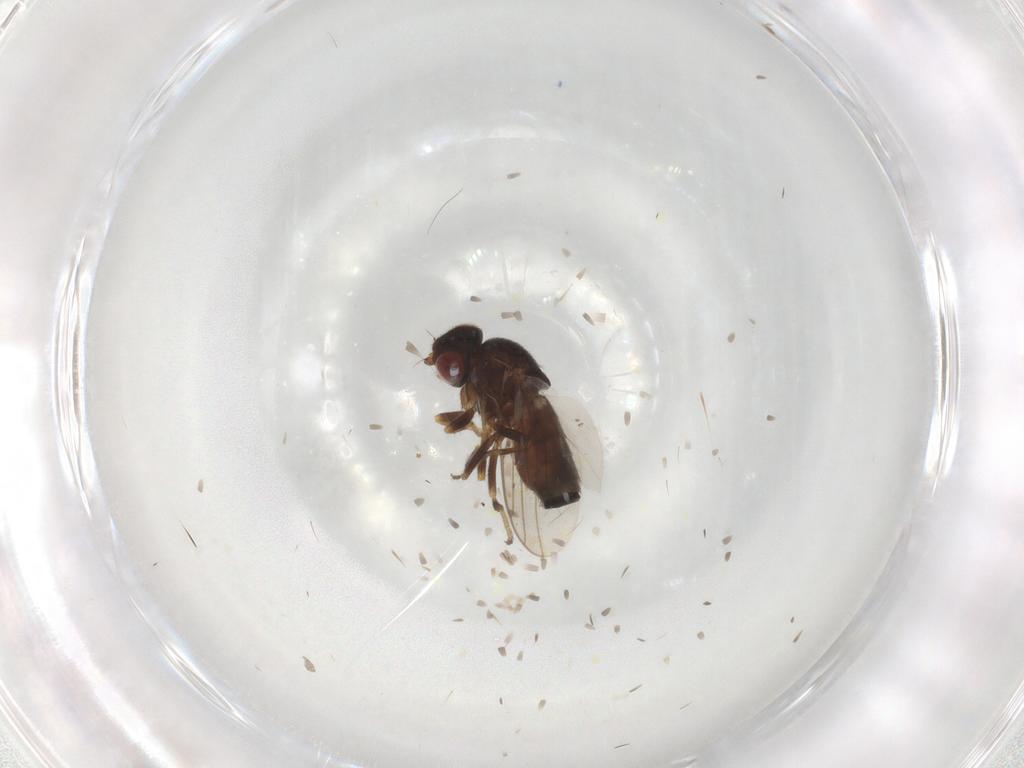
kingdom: Animalia
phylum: Arthropoda
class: Insecta
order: Diptera
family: Chloropidae
